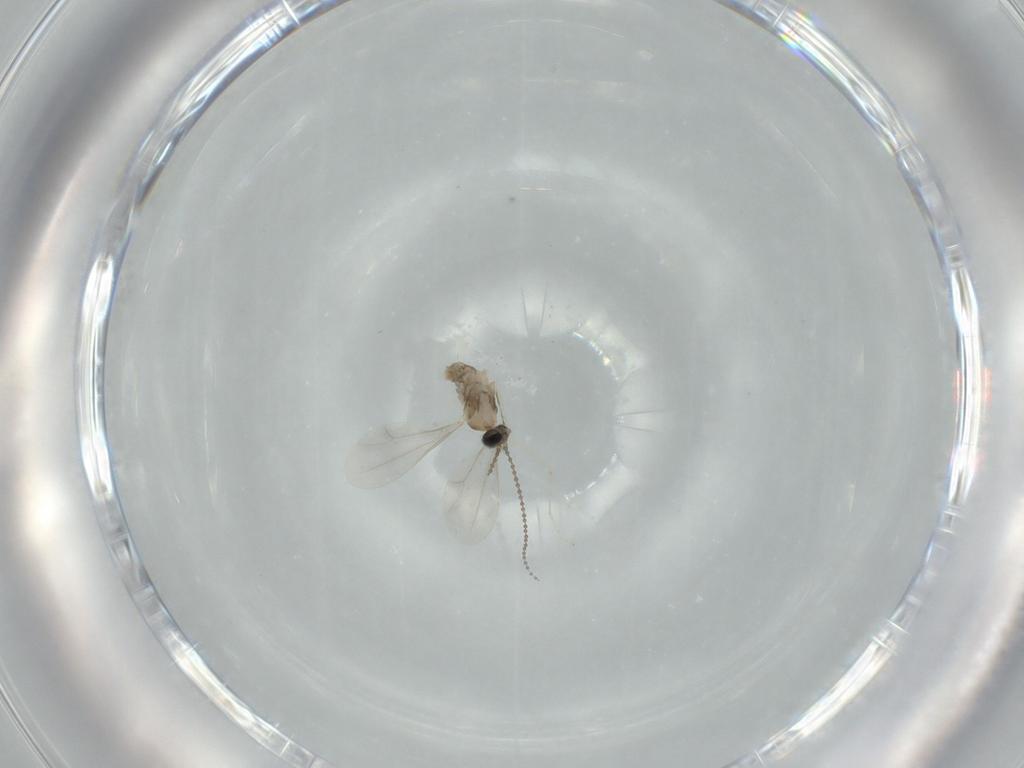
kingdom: Animalia
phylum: Arthropoda
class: Insecta
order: Diptera
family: Cecidomyiidae
